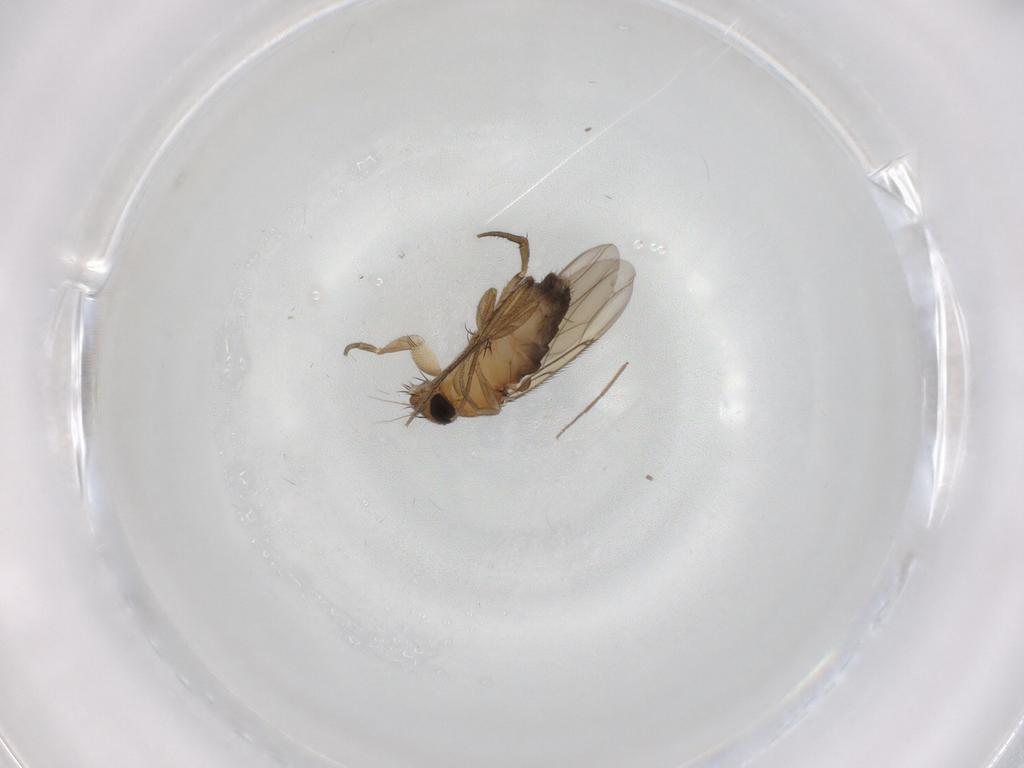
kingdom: Animalia
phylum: Arthropoda
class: Insecta
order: Diptera
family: Phoridae
